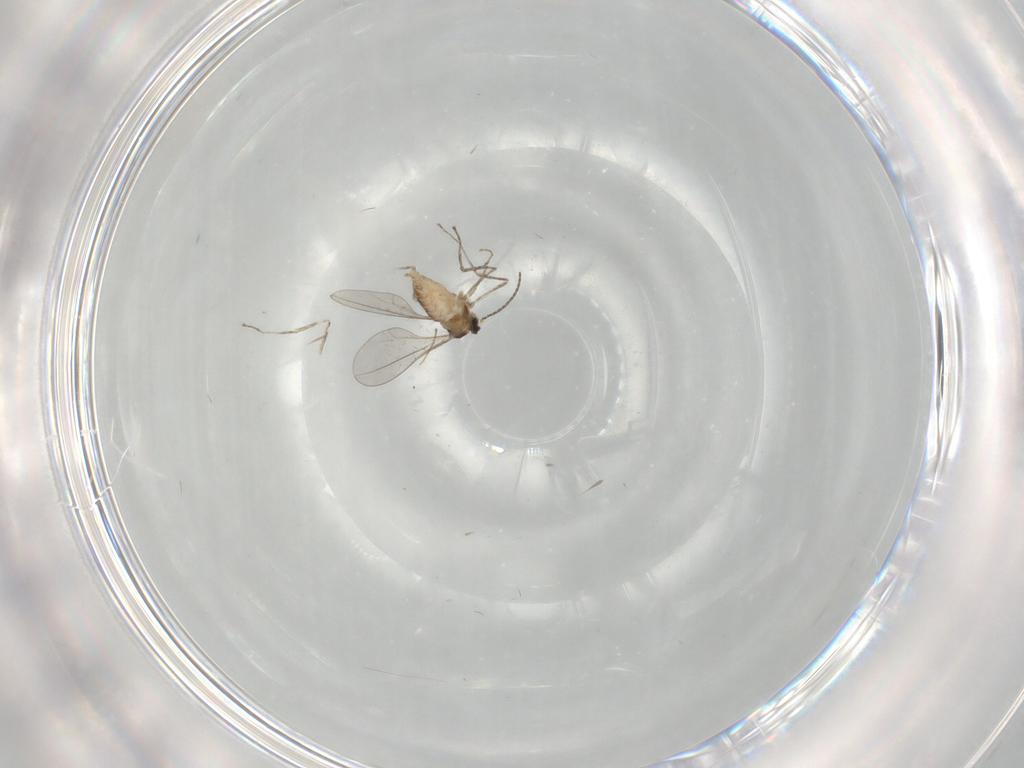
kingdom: Animalia
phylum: Arthropoda
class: Insecta
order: Diptera
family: Cecidomyiidae
